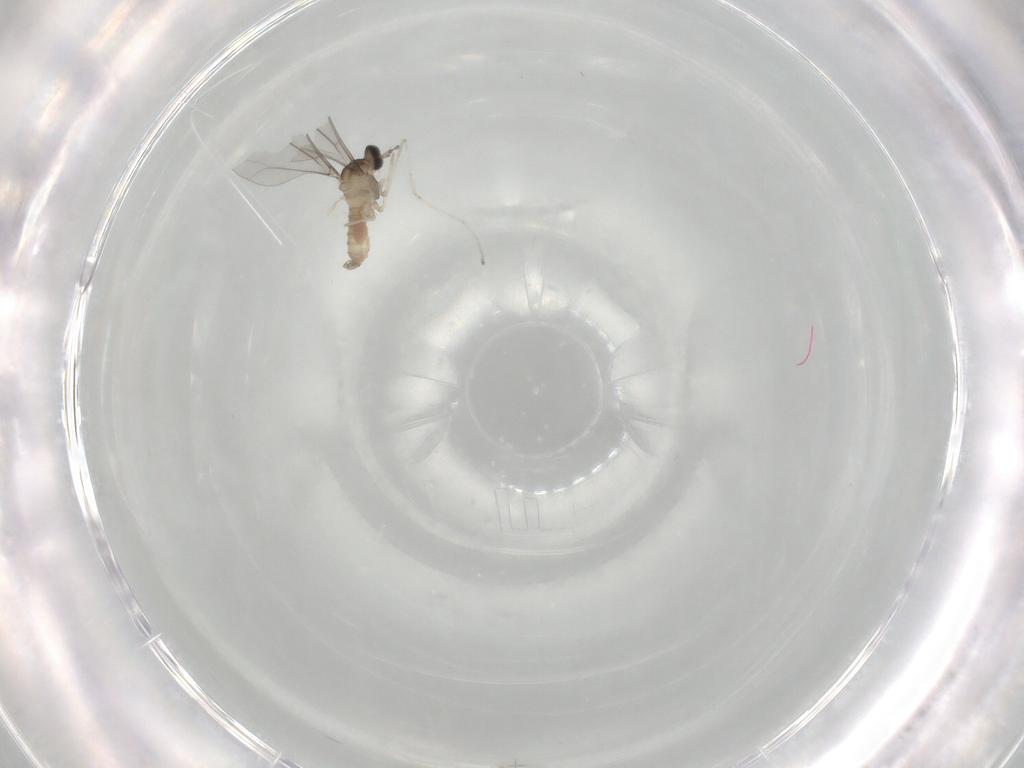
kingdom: Animalia
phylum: Arthropoda
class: Insecta
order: Diptera
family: Cecidomyiidae
